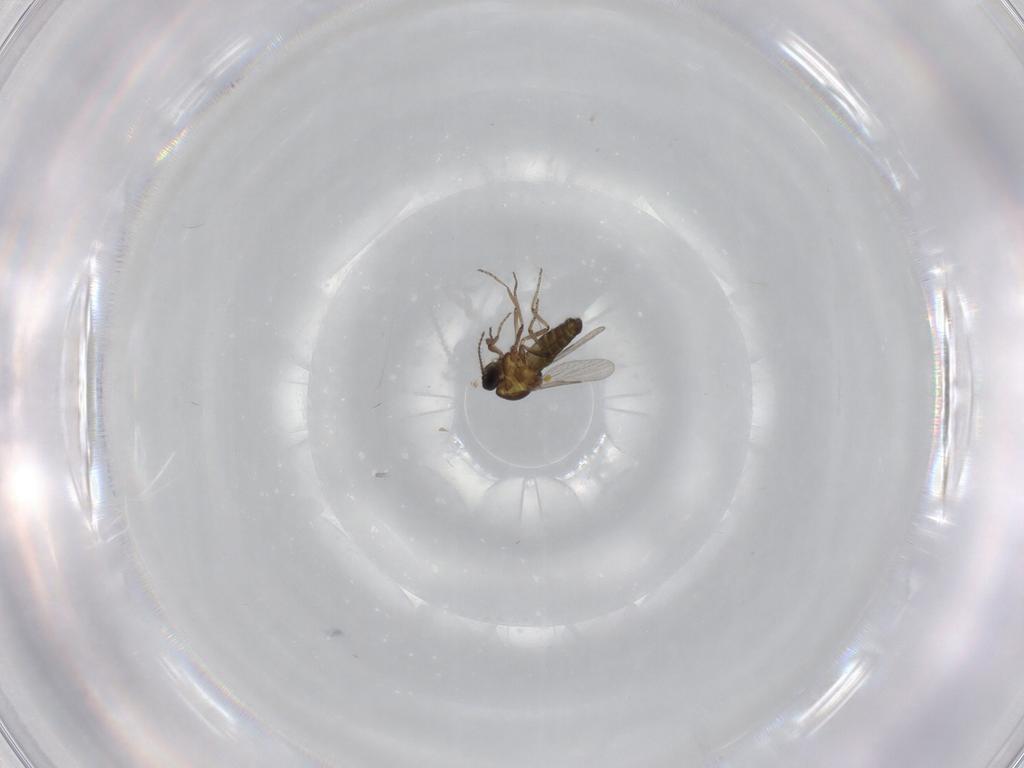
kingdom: Animalia
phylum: Arthropoda
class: Insecta
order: Diptera
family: Cecidomyiidae
